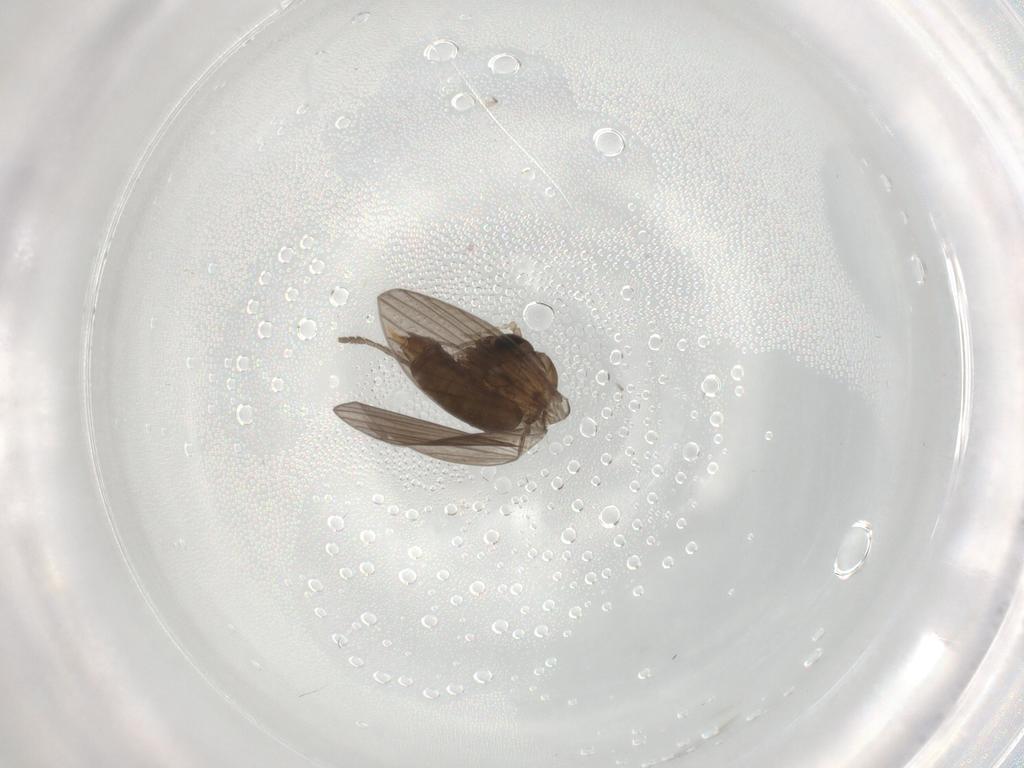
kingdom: Animalia
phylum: Arthropoda
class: Insecta
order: Diptera
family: Psychodidae
